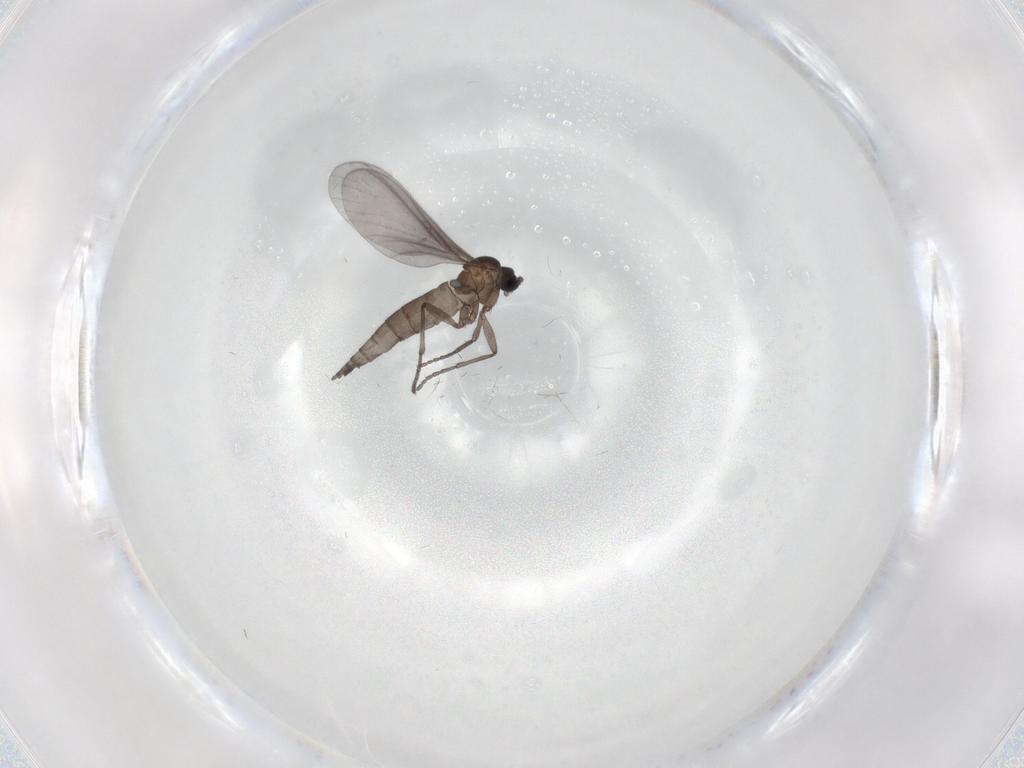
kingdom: Animalia
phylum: Arthropoda
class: Insecta
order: Diptera
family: Sciaridae
